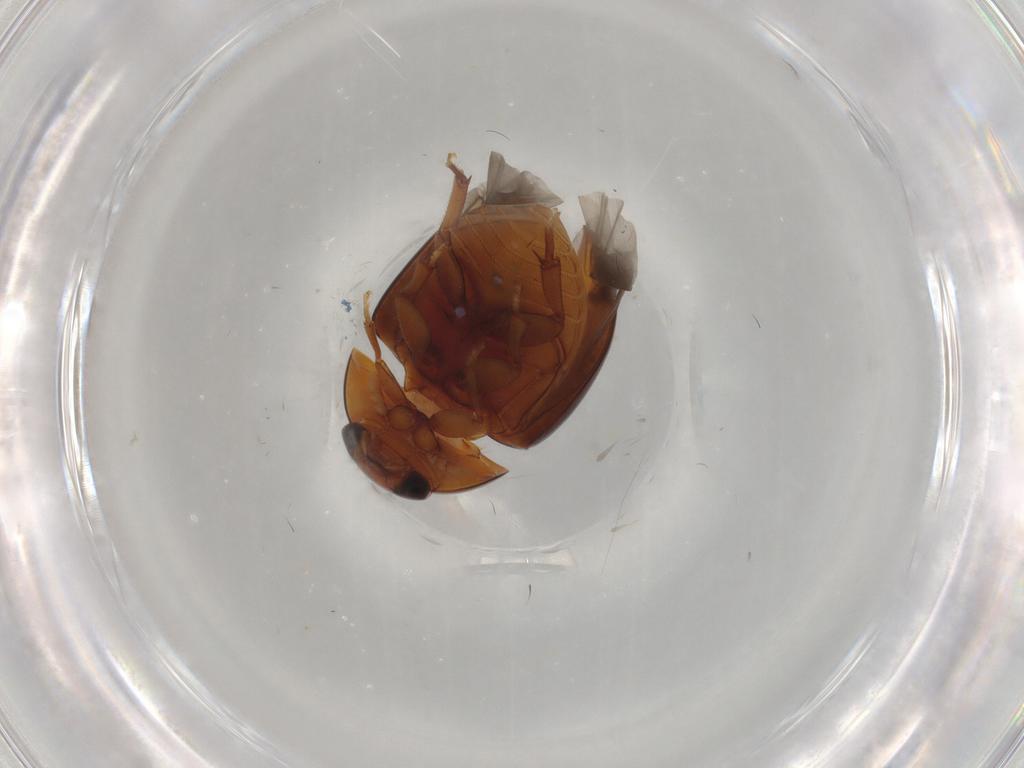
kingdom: Animalia
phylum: Arthropoda
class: Insecta
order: Coleoptera
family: Phalacridae
